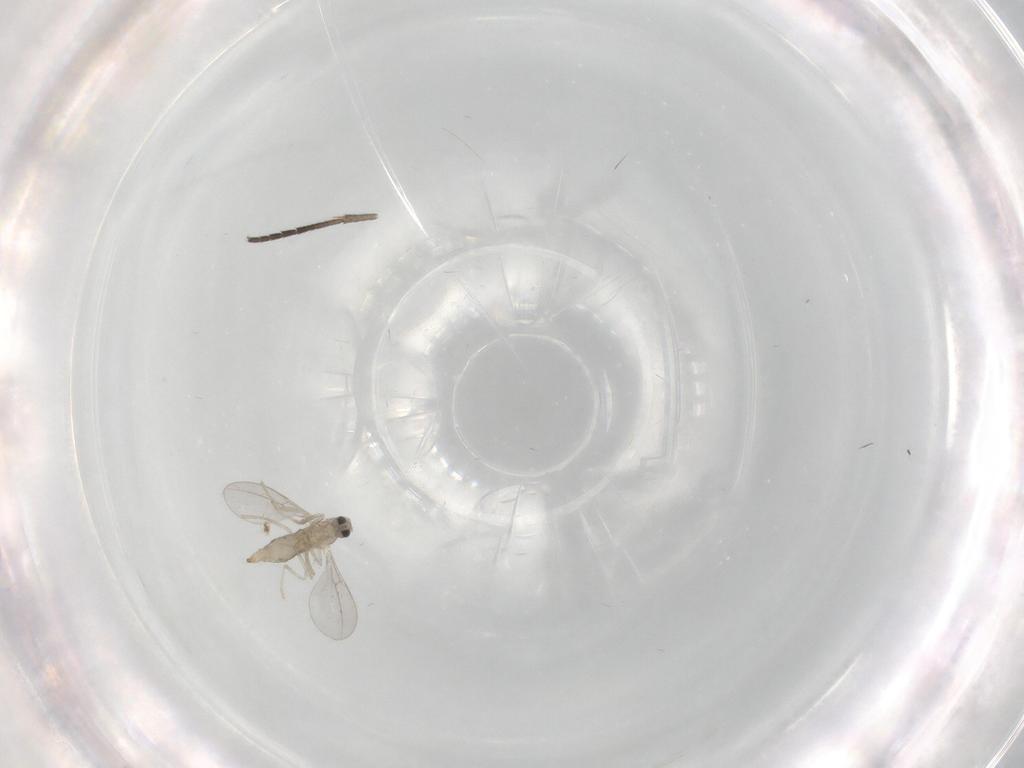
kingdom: Animalia
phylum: Arthropoda
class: Insecta
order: Diptera
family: Cecidomyiidae
